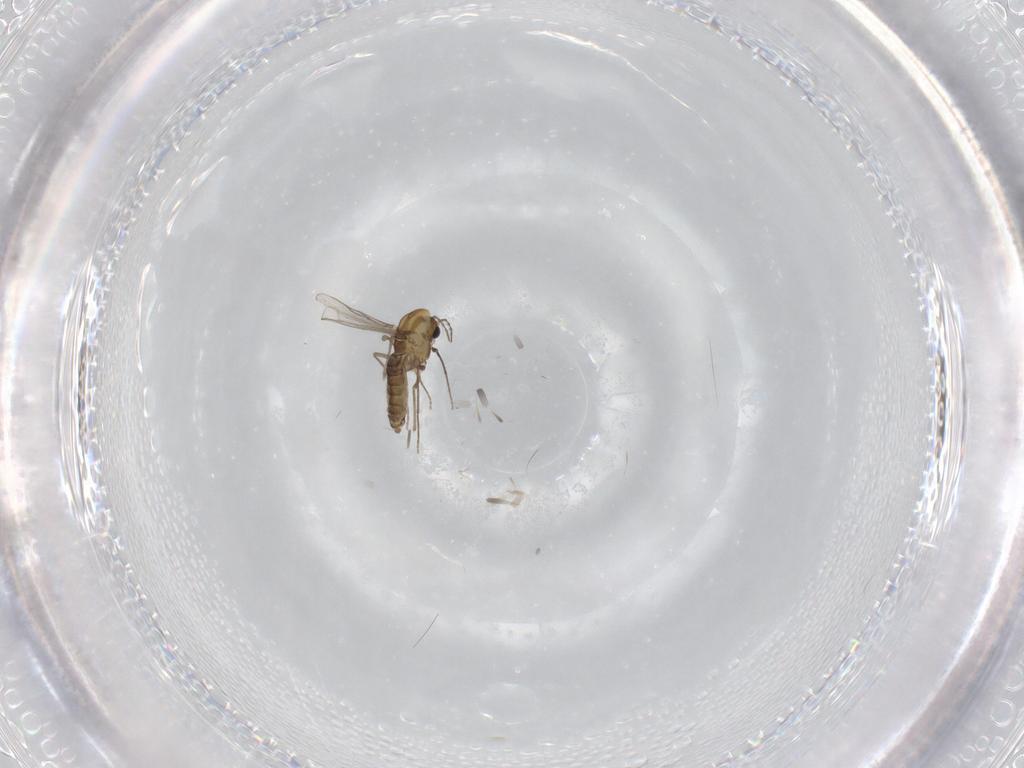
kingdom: Animalia
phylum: Arthropoda
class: Insecta
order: Diptera
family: Chironomidae
